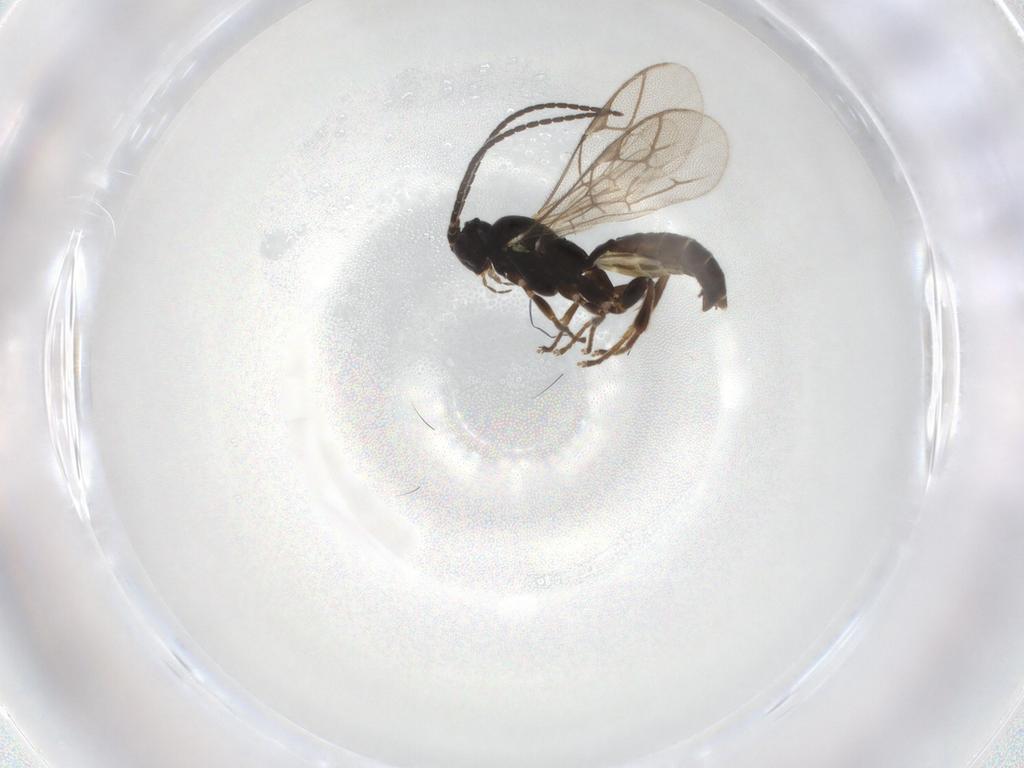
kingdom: Animalia
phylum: Arthropoda
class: Insecta
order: Hymenoptera
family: Ichneumonidae
